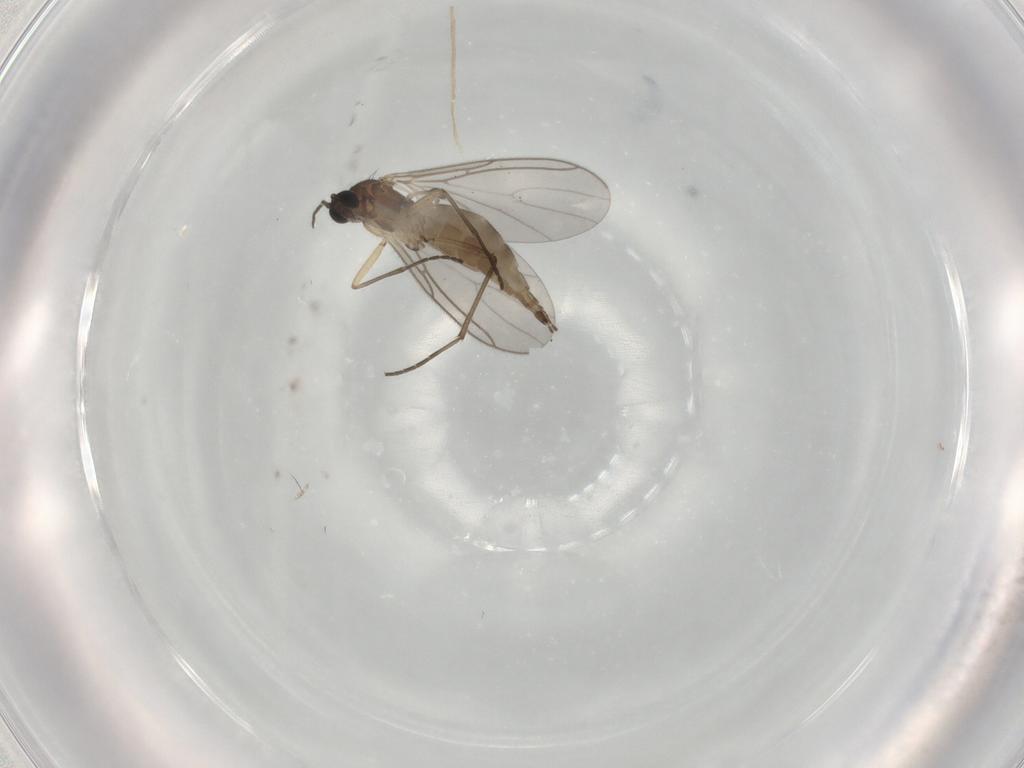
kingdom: Animalia
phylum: Arthropoda
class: Insecta
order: Diptera
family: Sciaridae
